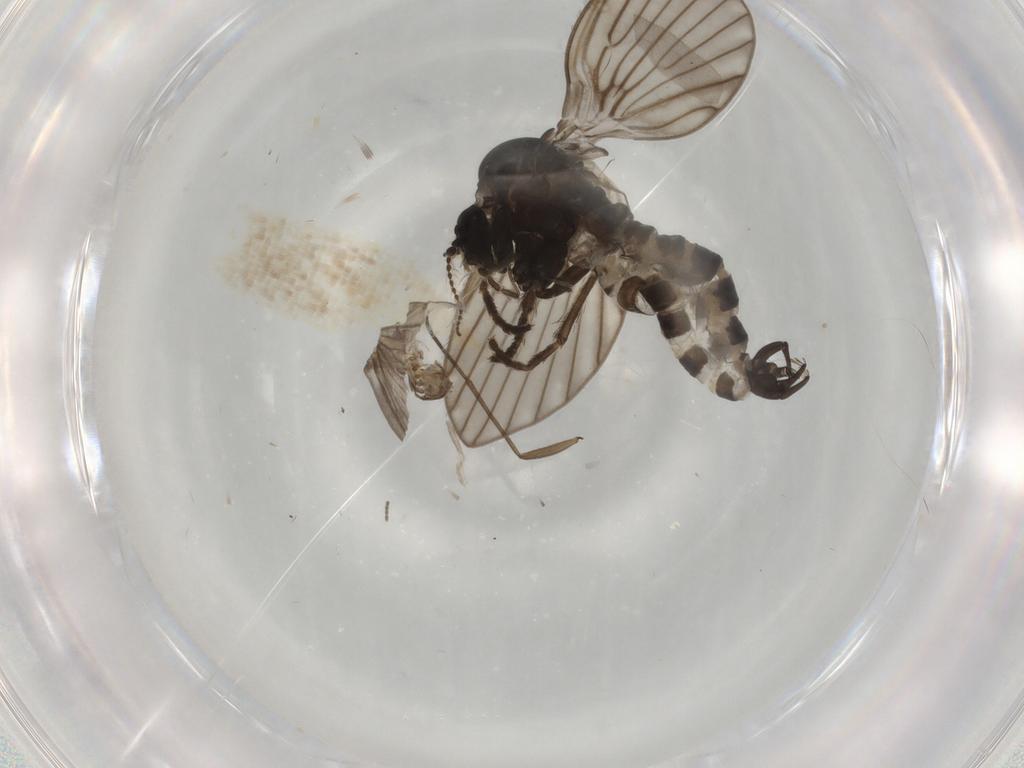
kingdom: Animalia
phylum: Arthropoda
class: Insecta
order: Diptera
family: Psychodidae
